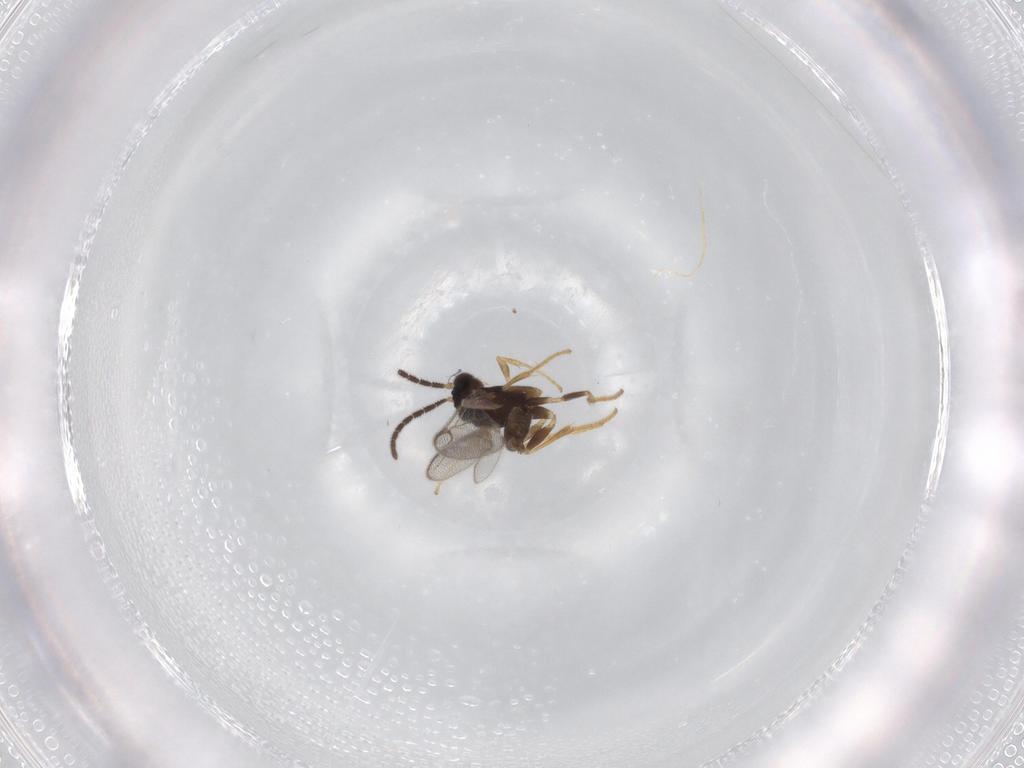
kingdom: Animalia
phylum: Arthropoda
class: Insecta
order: Hymenoptera
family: Dryinidae
